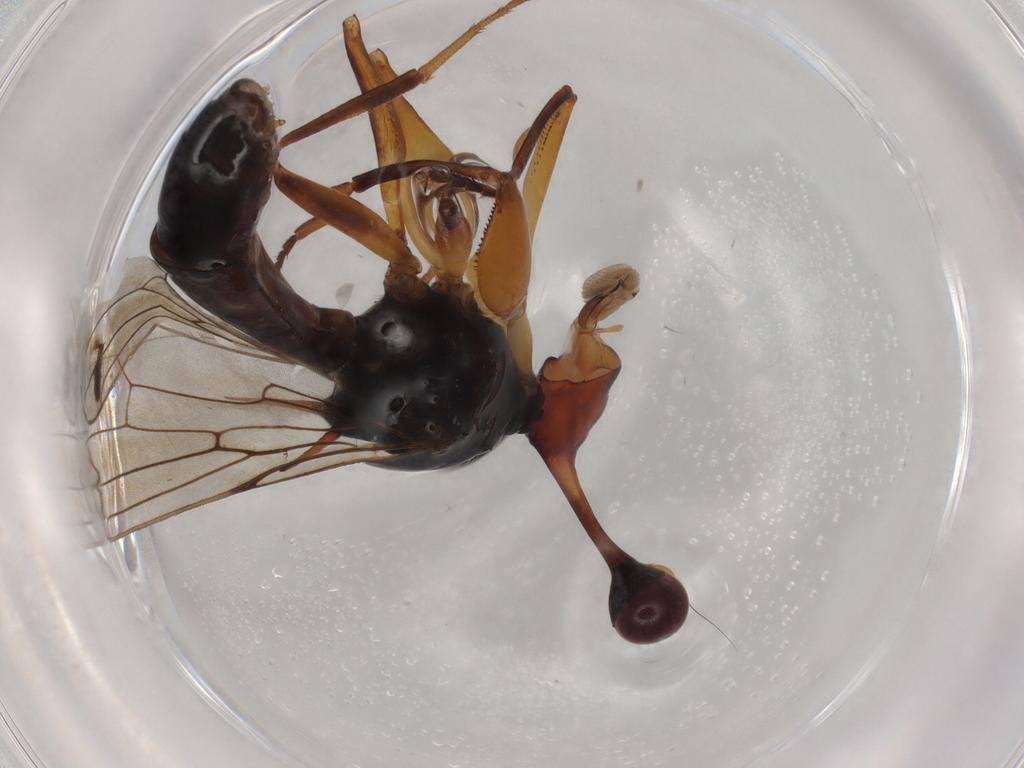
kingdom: Animalia
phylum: Arthropoda
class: Insecta
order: Diptera
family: Diopsidae
